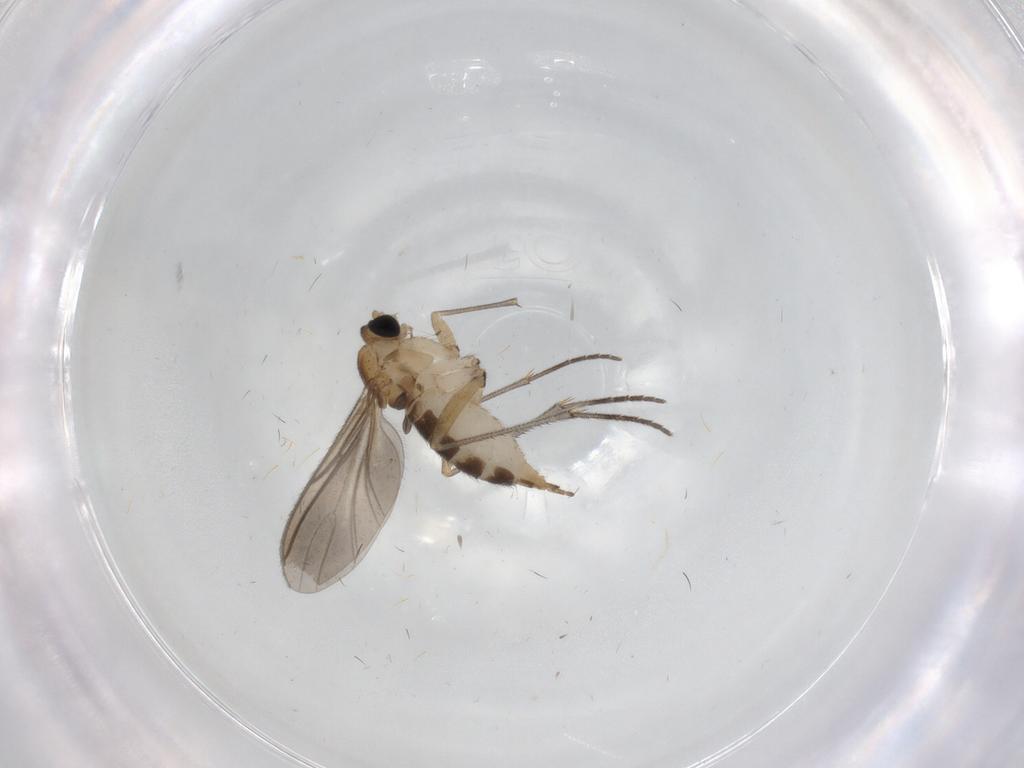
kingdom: Animalia
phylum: Arthropoda
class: Insecta
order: Diptera
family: Sciaridae
